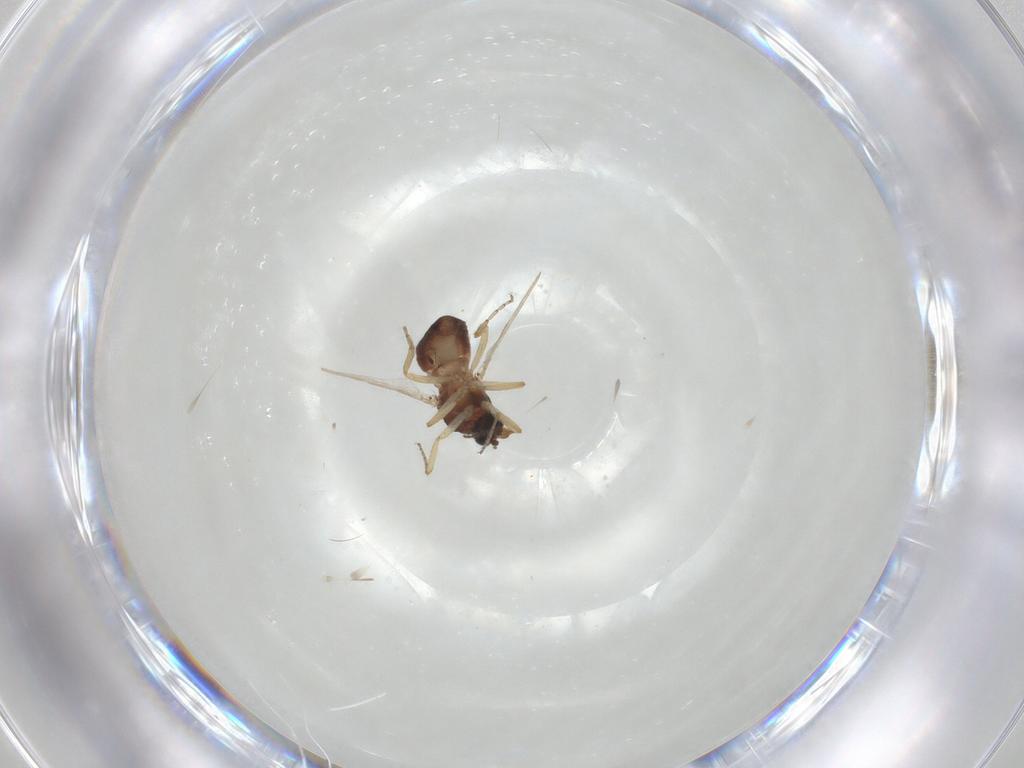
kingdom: Animalia
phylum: Arthropoda
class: Insecta
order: Diptera
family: Ceratopogonidae
